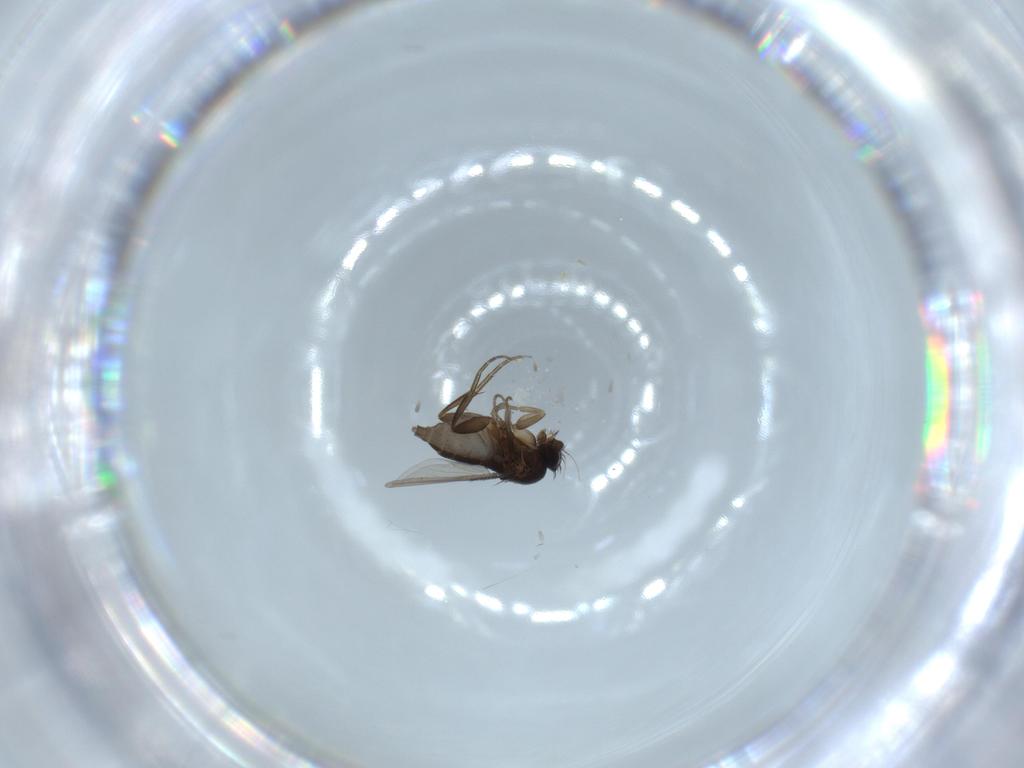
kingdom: Animalia
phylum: Arthropoda
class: Insecta
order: Diptera
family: Phoridae
